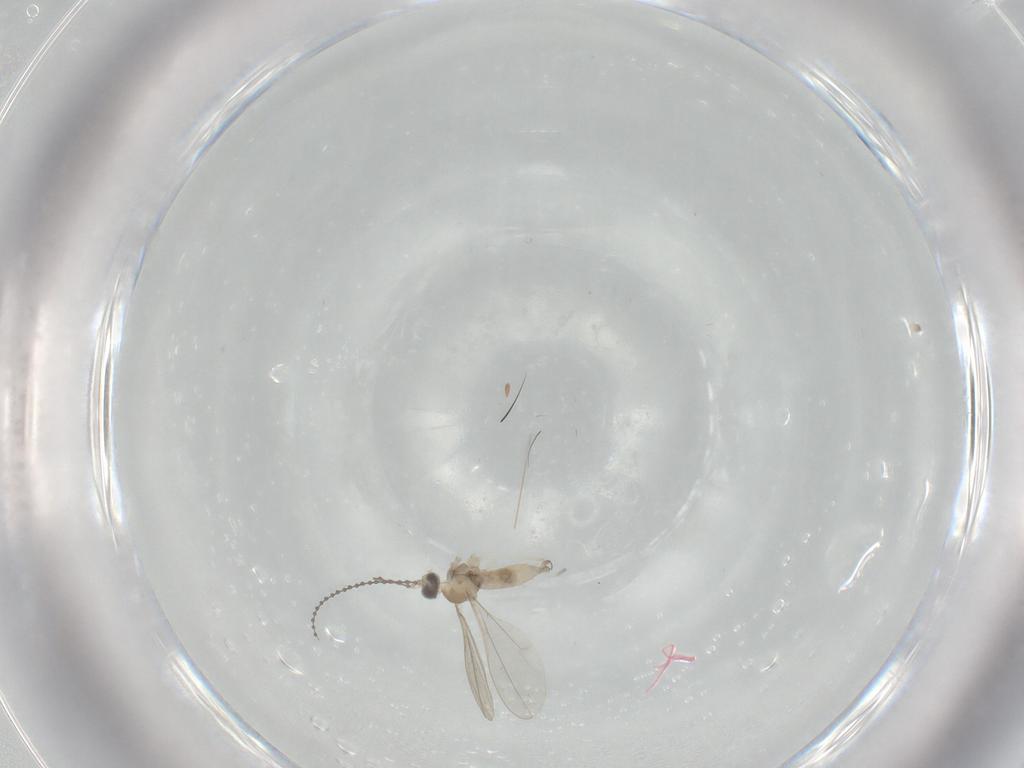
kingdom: Animalia
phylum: Arthropoda
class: Insecta
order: Diptera
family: Cecidomyiidae
